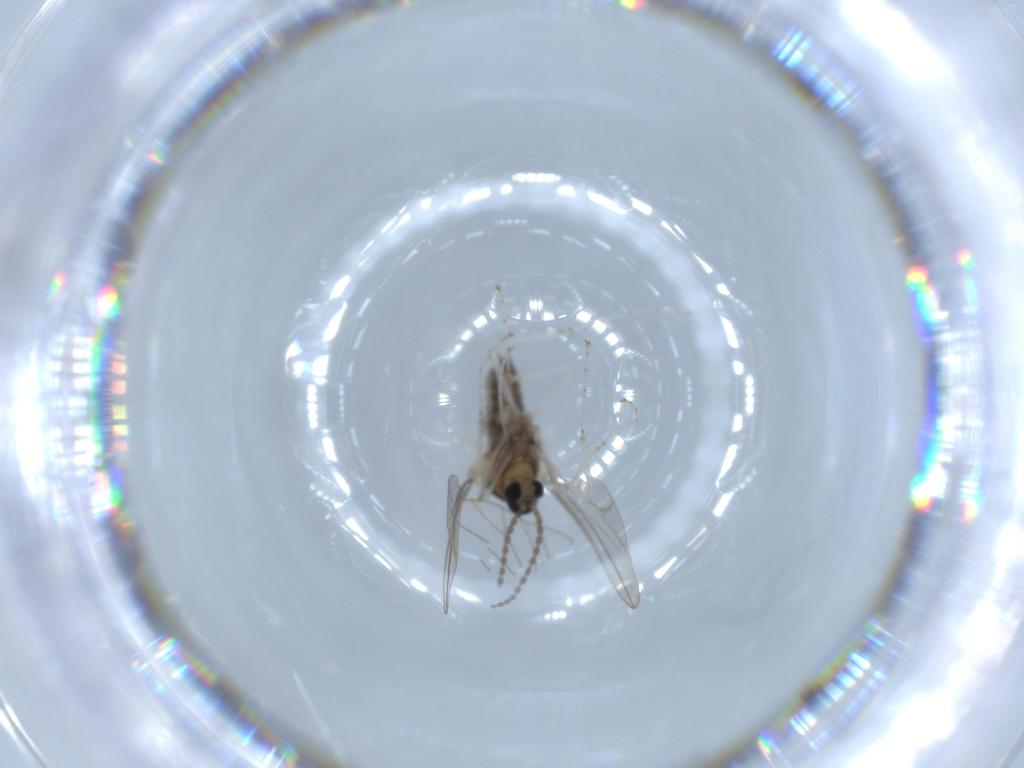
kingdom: Animalia
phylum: Arthropoda
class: Insecta
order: Diptera
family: Cecidomyiidae
